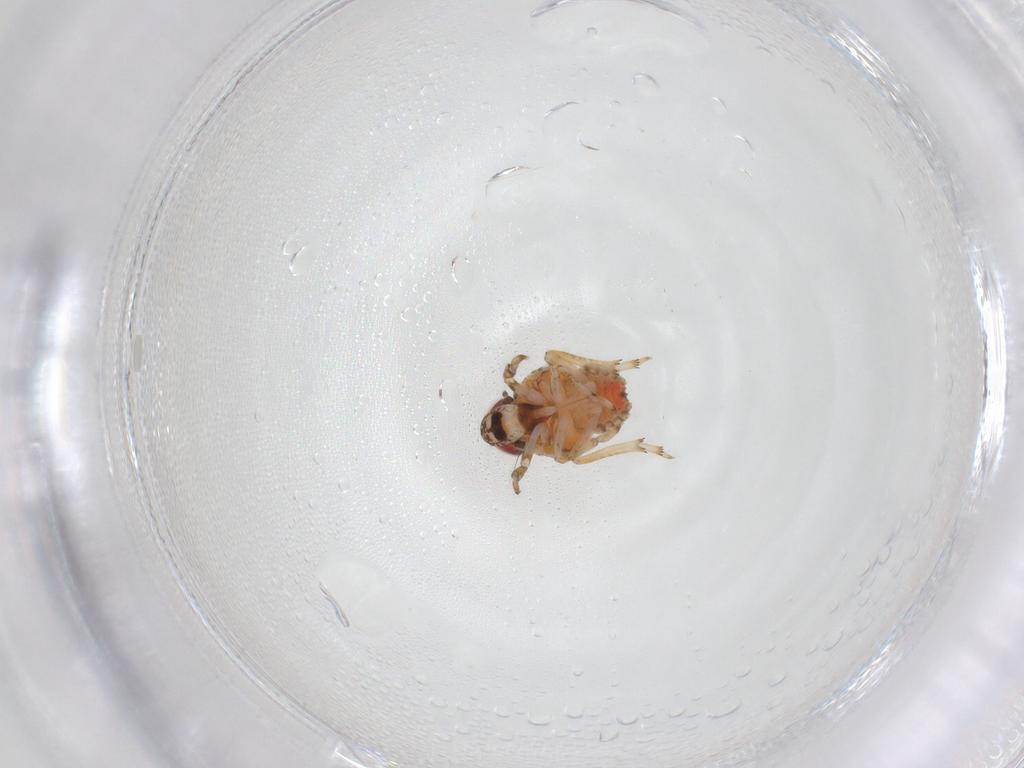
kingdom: Animalia
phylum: Arthropoda
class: Insecta
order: Hemiptera
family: Issidae
